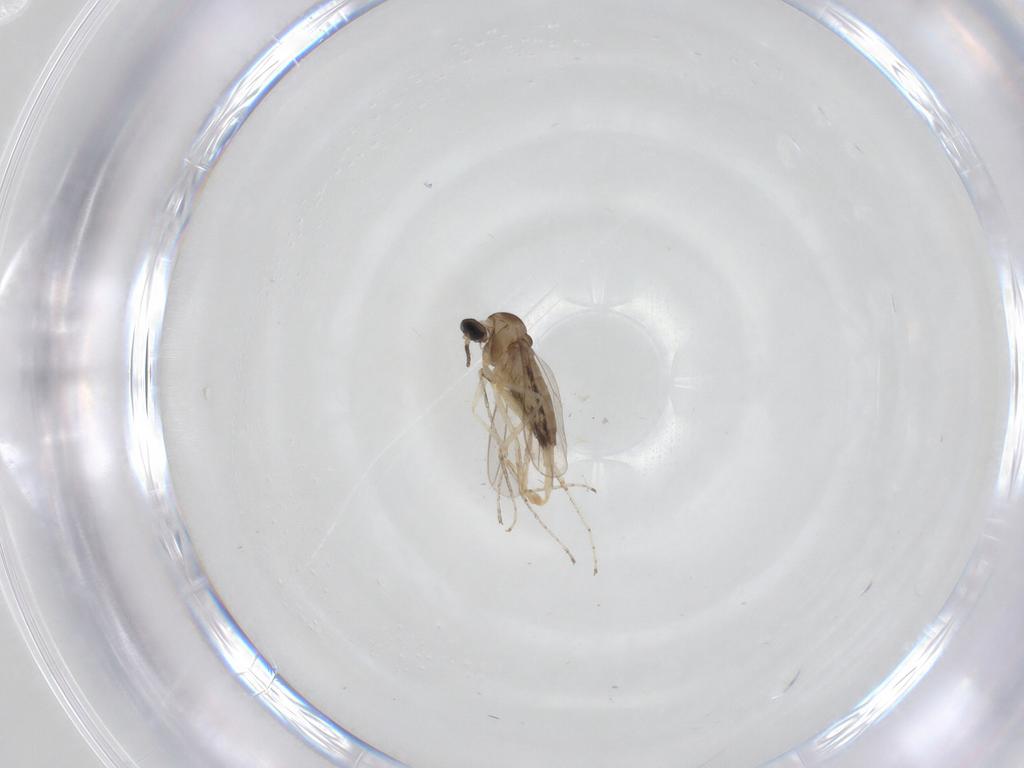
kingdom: Animalia
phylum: Arthropoda
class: Insecta
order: Diptera
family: Cecidomyiidae
